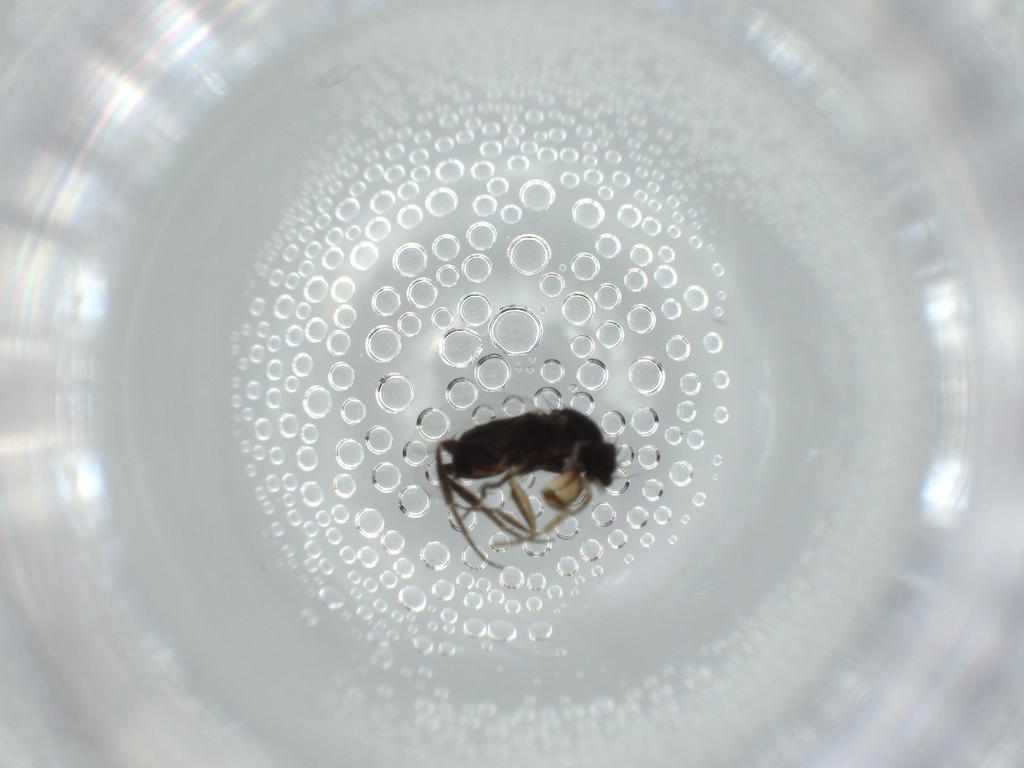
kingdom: Animalia
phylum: Arthropoda
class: Insecta
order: Diptera
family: Phoridae
